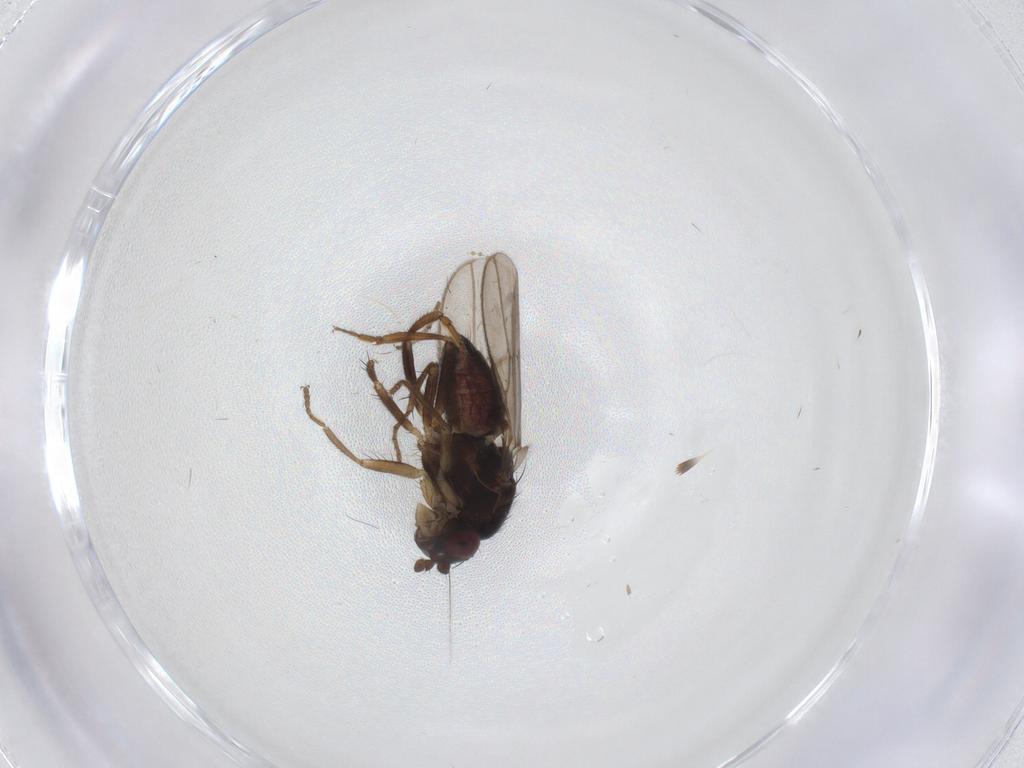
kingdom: Animalia
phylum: Arthropoda
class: Insecta
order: Diptera
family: Sphaeroceridae
